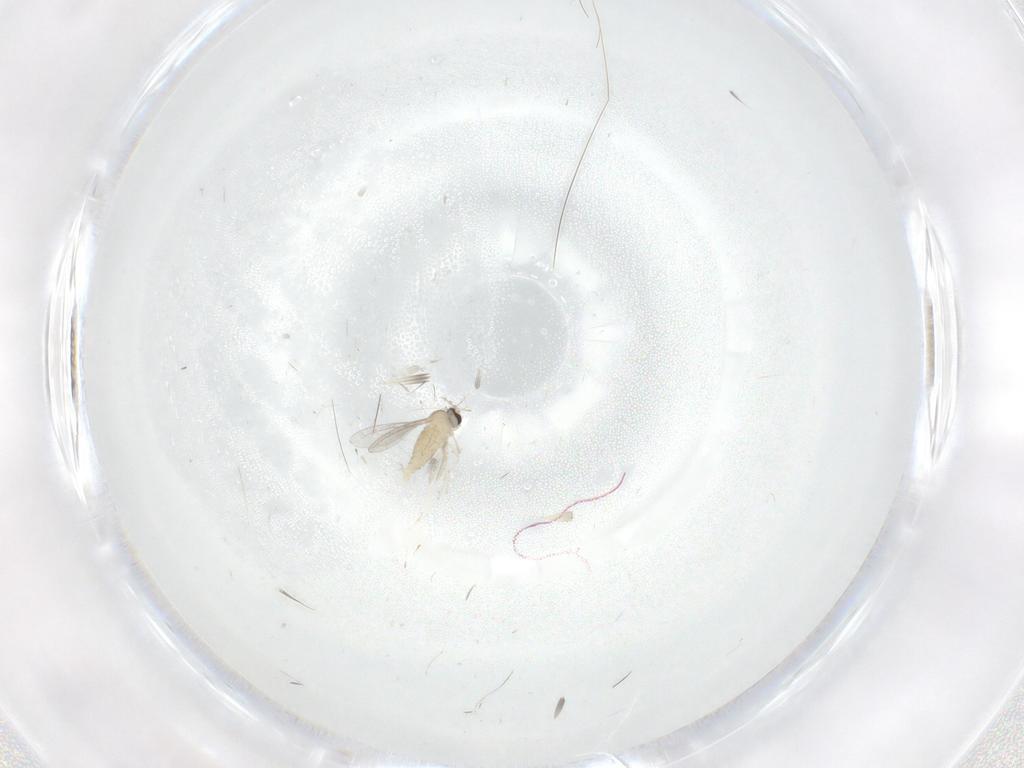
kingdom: Animalia
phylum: Arthropoda
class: Insecta
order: Diptera
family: Cecidomyiidae
